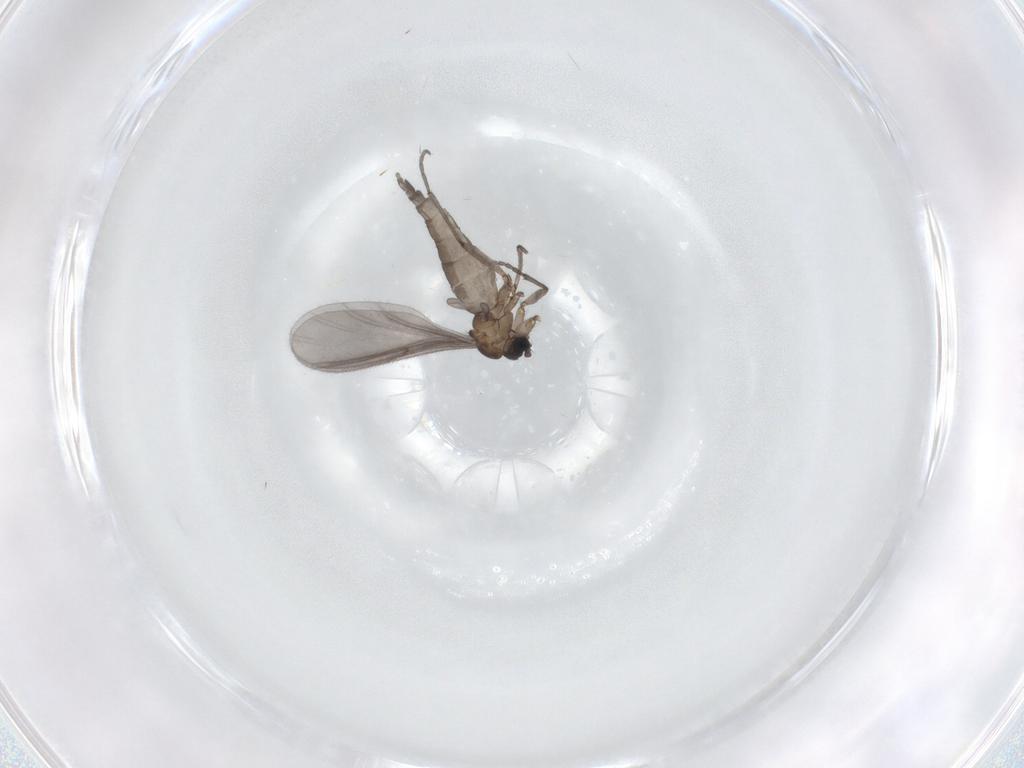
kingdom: Animalia
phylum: Arthropoda
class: Insecta
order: Diptera
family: Sciaridae
